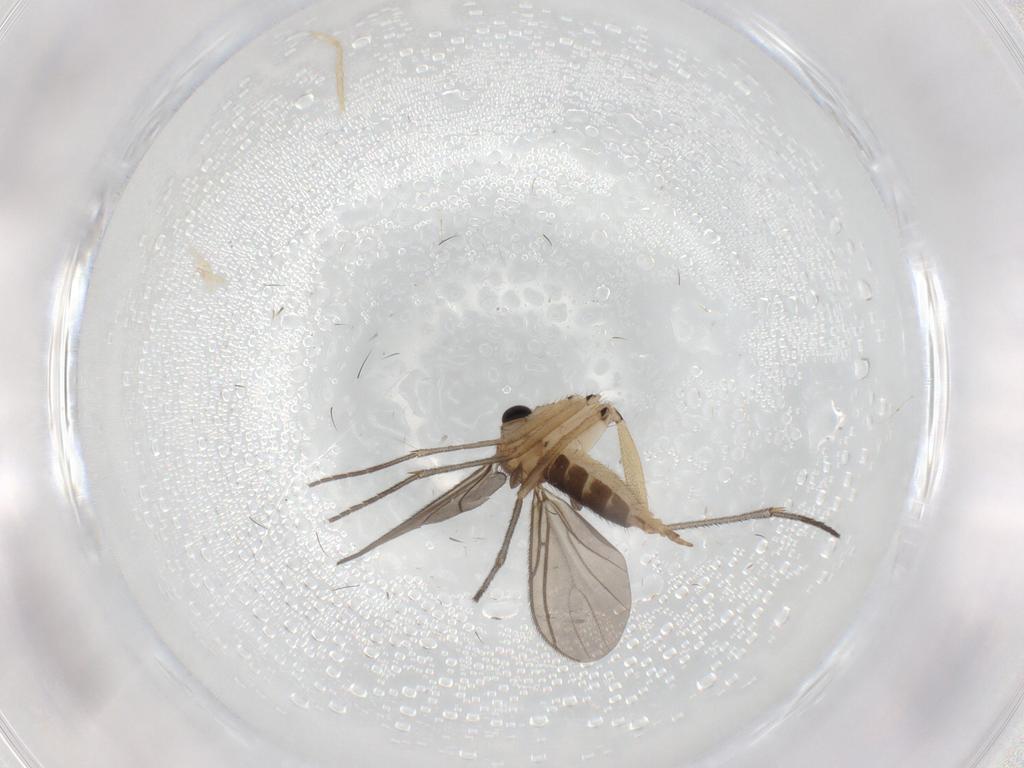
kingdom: Animalia
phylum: Arthropoda
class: Insecta
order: Diptera
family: Sciaridae
